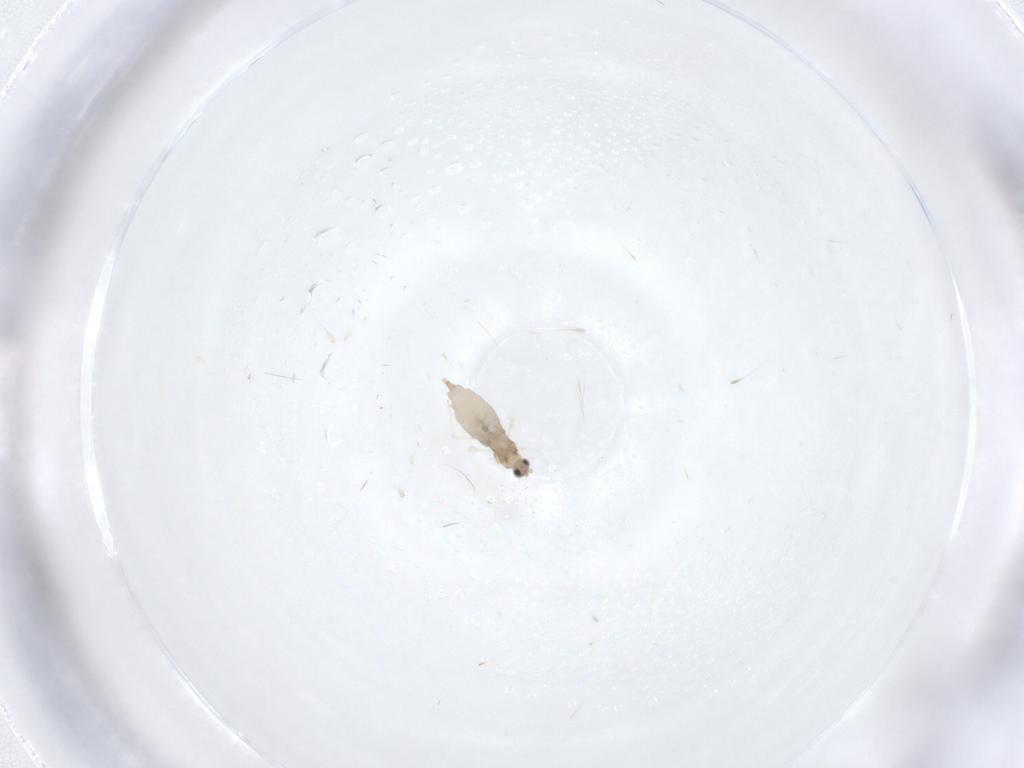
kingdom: Animalia
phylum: Arthropoda
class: Insecta
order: Diptera
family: Cecidomyiidae
